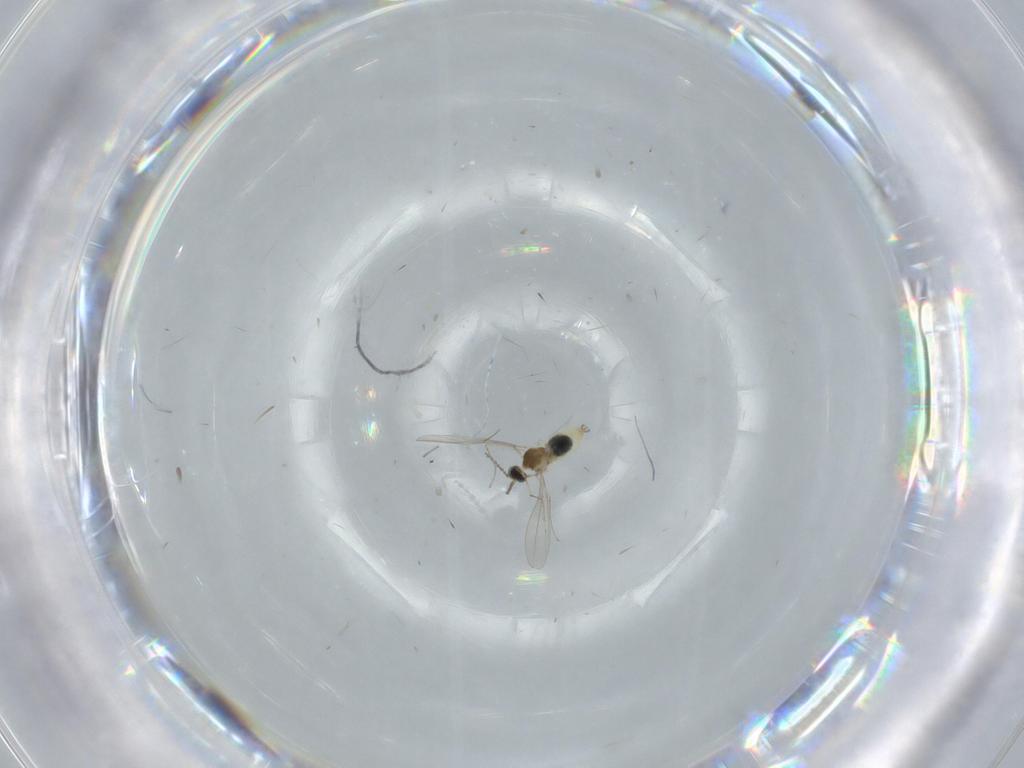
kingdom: Animalia
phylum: Arthropoda
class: Insecta
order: Diptera
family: Cecidomyiidae
